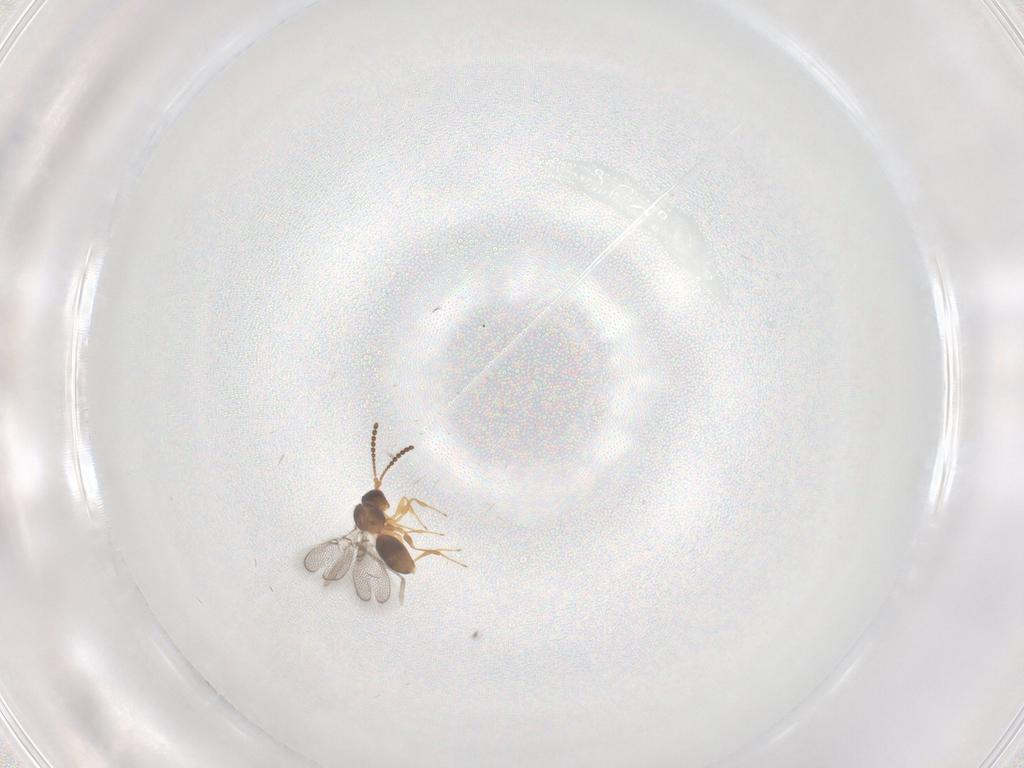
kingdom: Animalia
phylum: Arthropoda
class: Insecta
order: Hymenoptera
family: Figitidae
